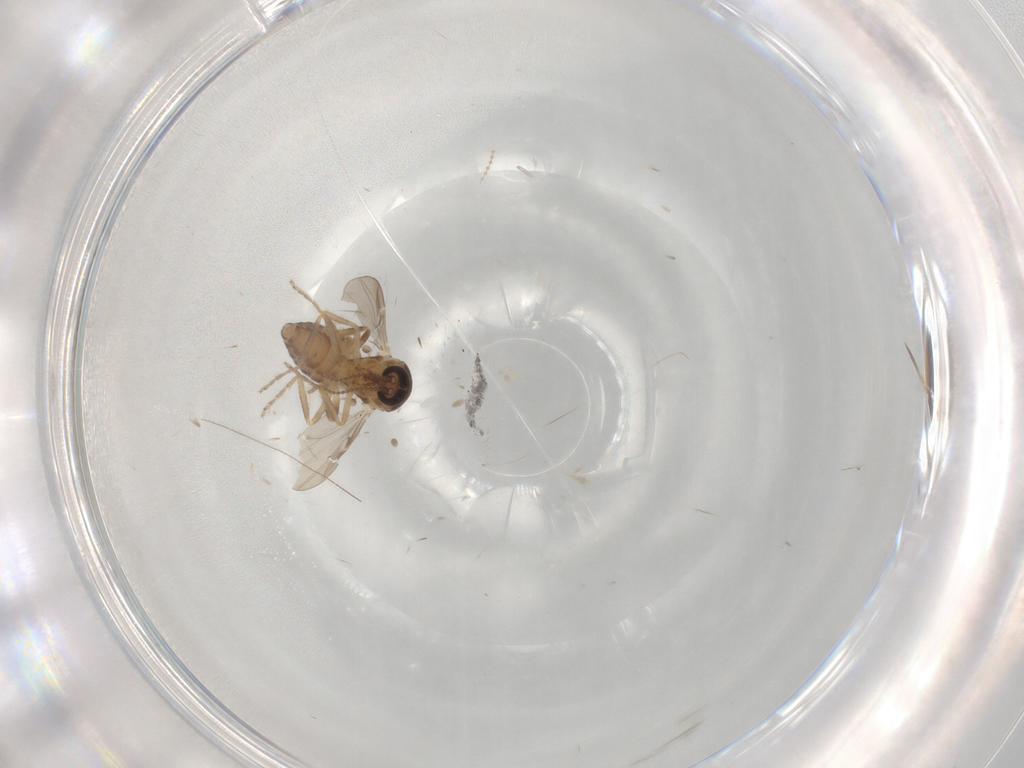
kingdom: Animalia
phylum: Arthropoda
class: Insecta
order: Diptera
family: Ceratopogonidae
